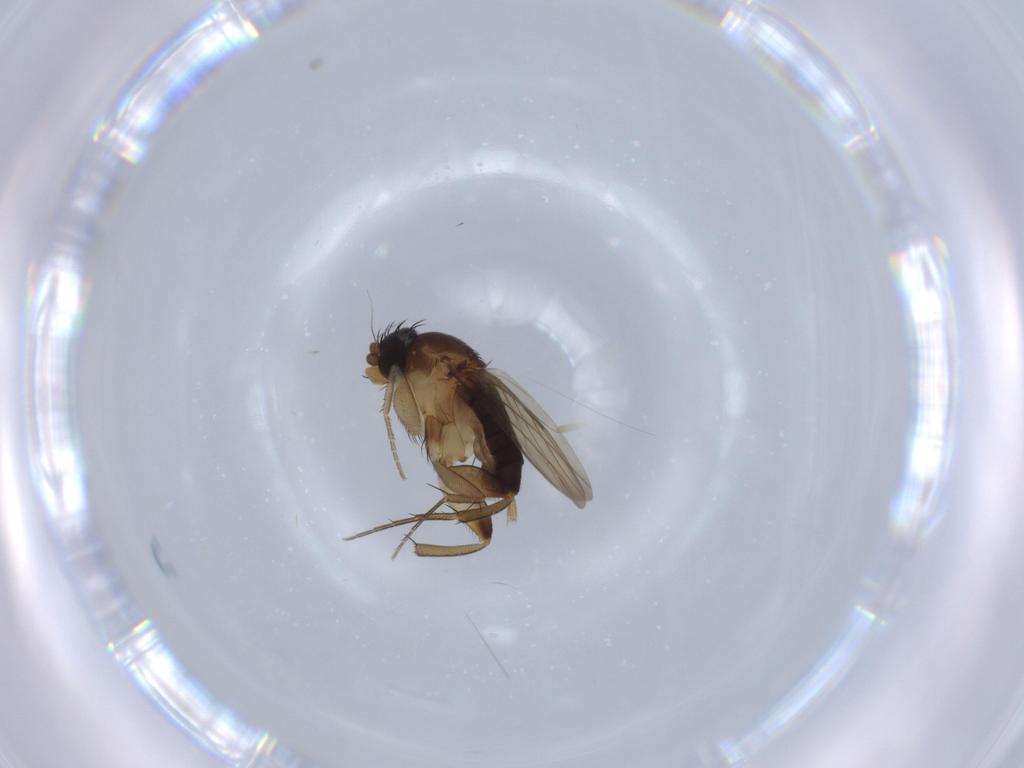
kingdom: Animalia
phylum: Arthropoda
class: Insecta
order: Diptera
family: Phoridae
